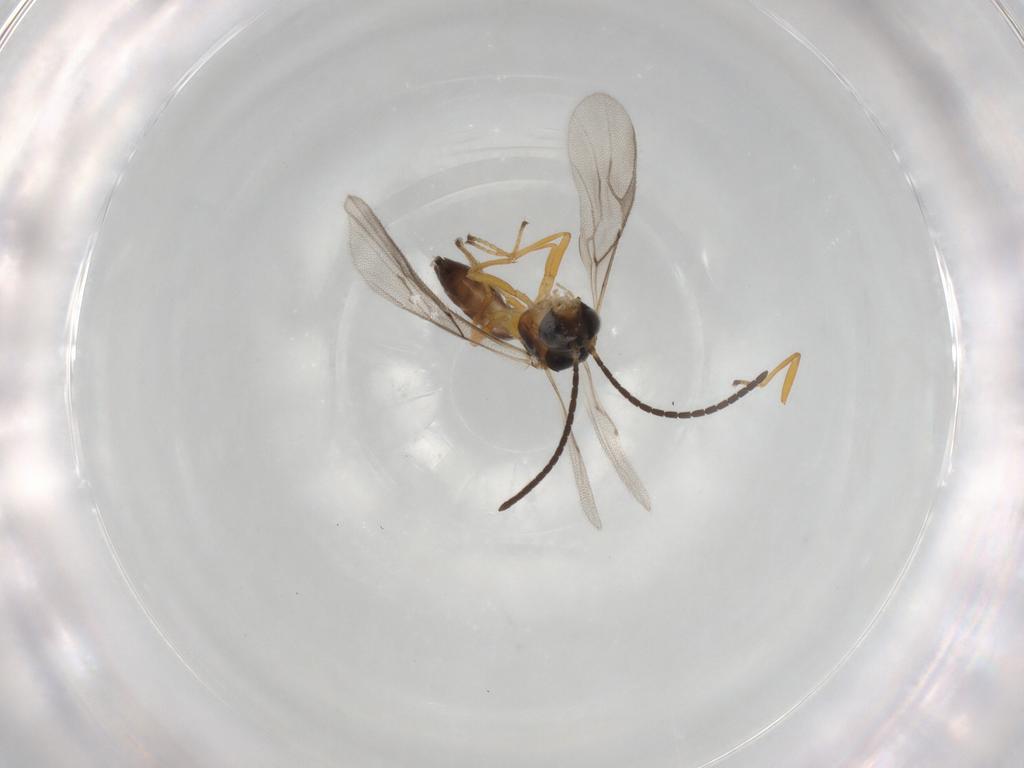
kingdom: Animalia
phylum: Arthropoda
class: Insecta
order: Hymenoptera
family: Braconidae
